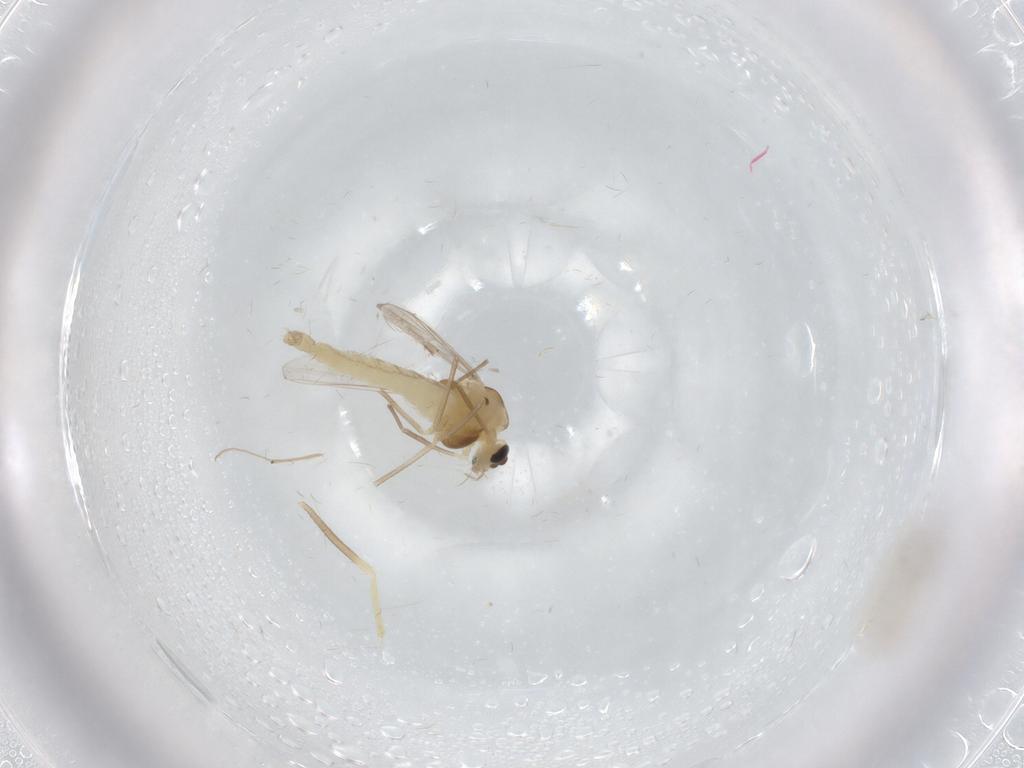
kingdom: Animalia
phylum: Arthropoda
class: Insecta
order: Diptera
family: Chironomidae
